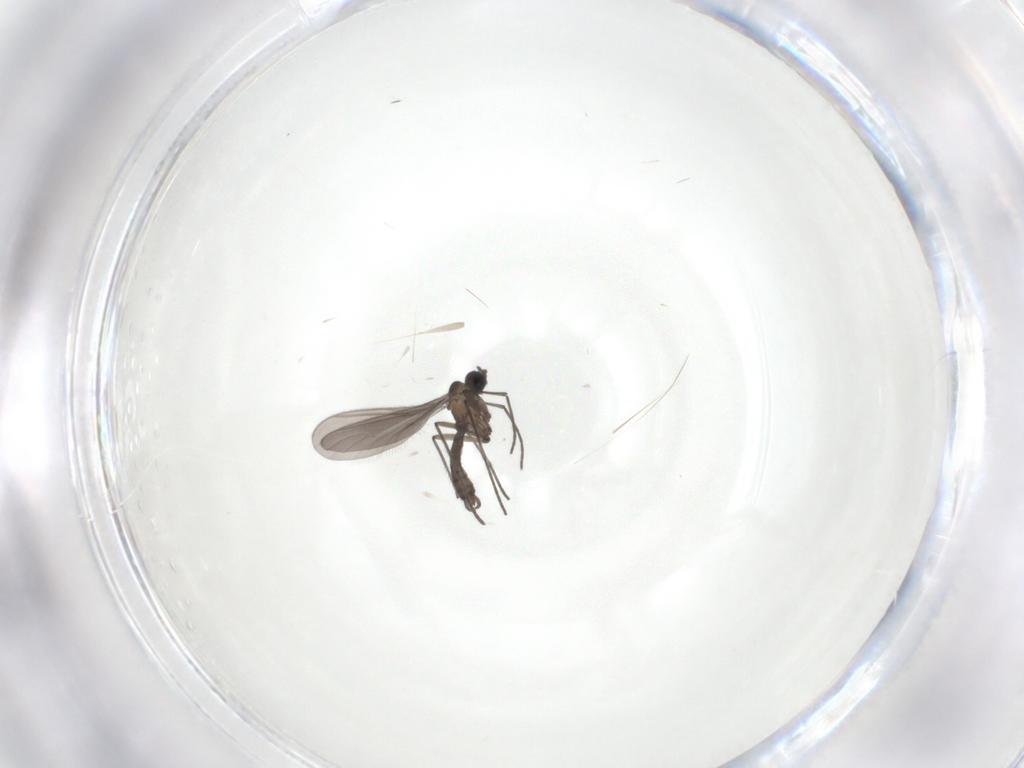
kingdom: Animalia
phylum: Arthropoda
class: Insecta
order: Diptera
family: Sciaridae
